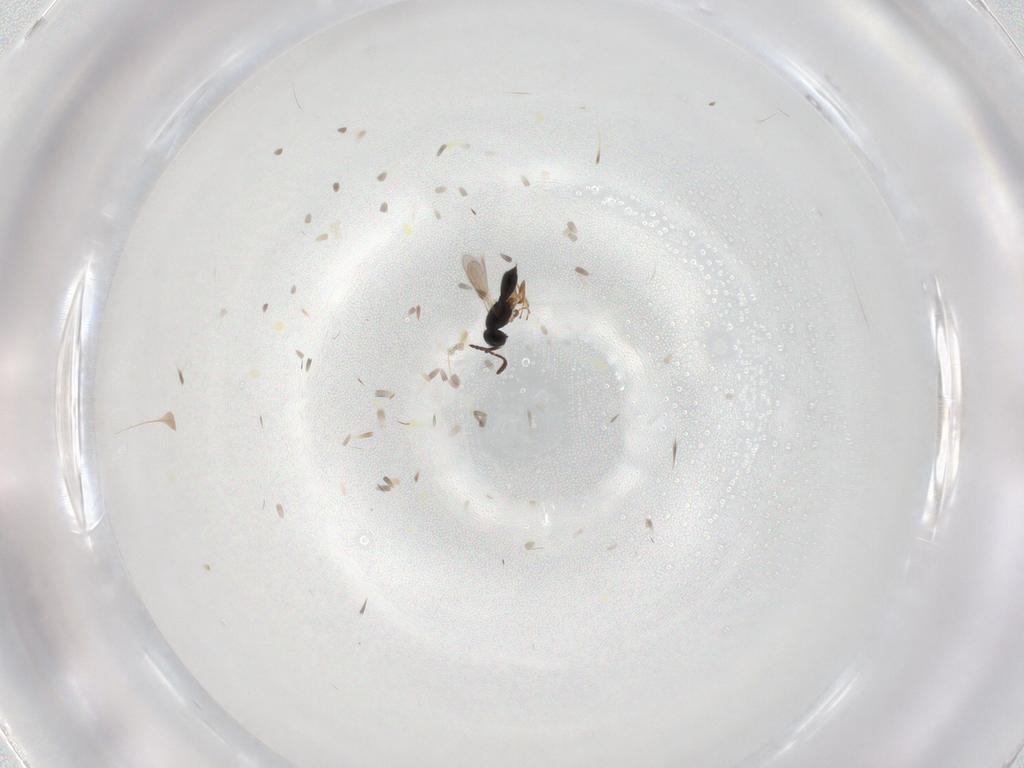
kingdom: Animalia
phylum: Arthropoda
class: Insecta
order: Hymenoptera
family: Scelionidae
